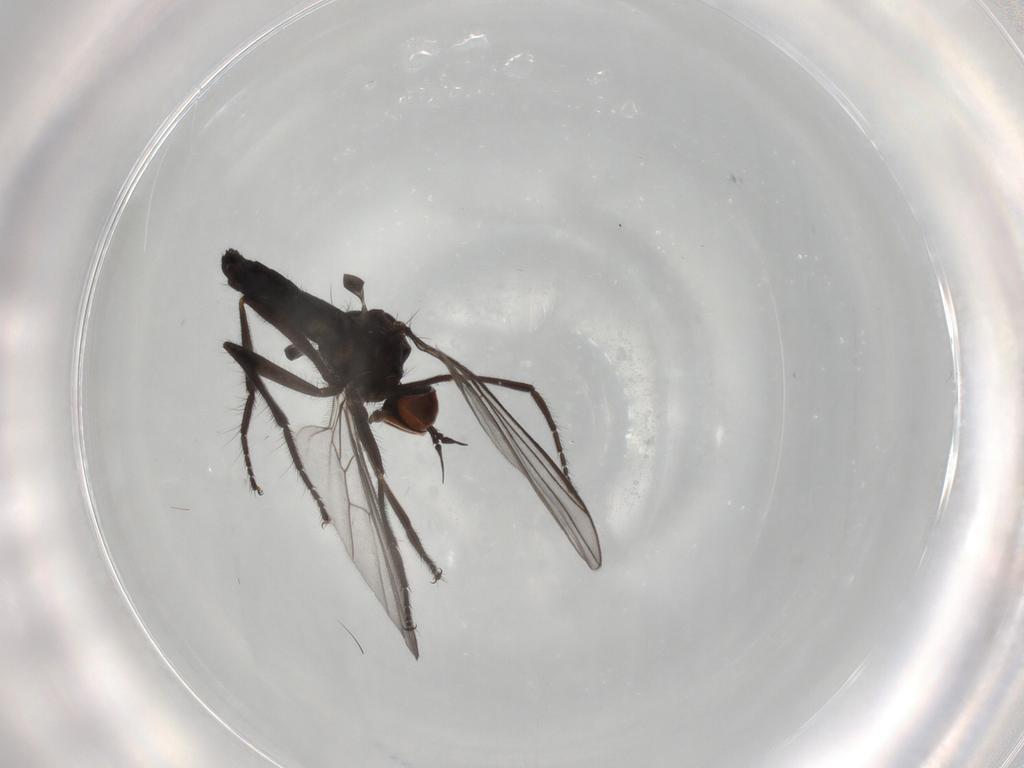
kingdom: Animalia
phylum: Arthropoda
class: Insecta
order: Diptera
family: Empididae
